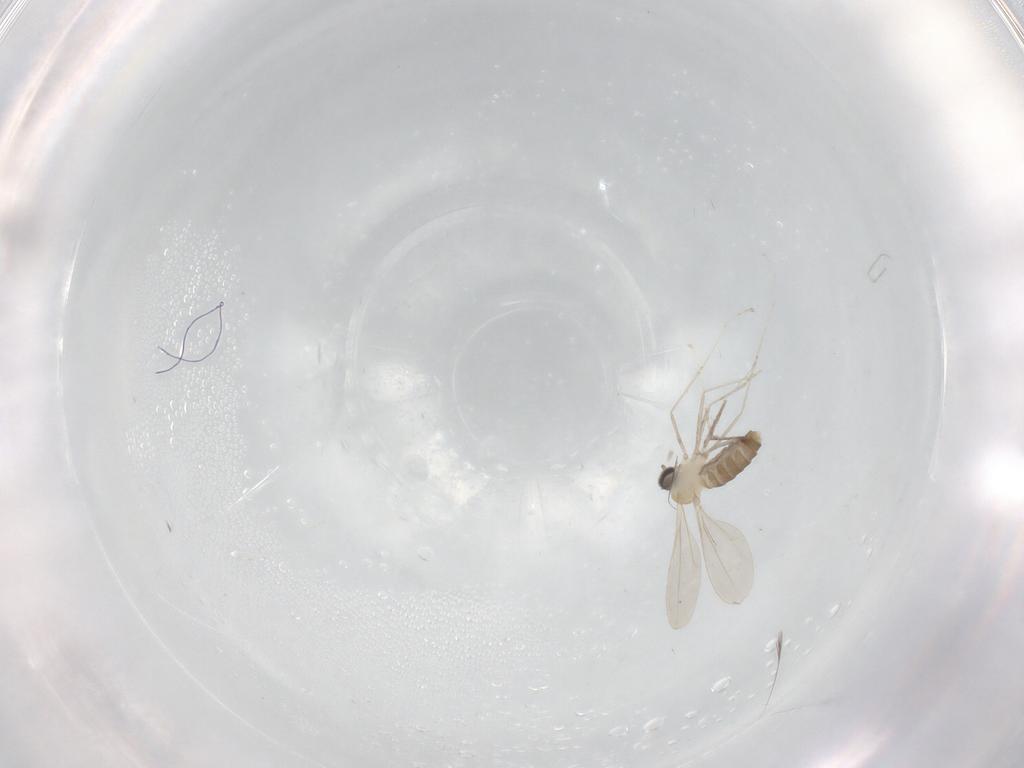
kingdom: Animalia
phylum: Arthropoda
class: Insecta
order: Diptera
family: Cecidomyiidae
